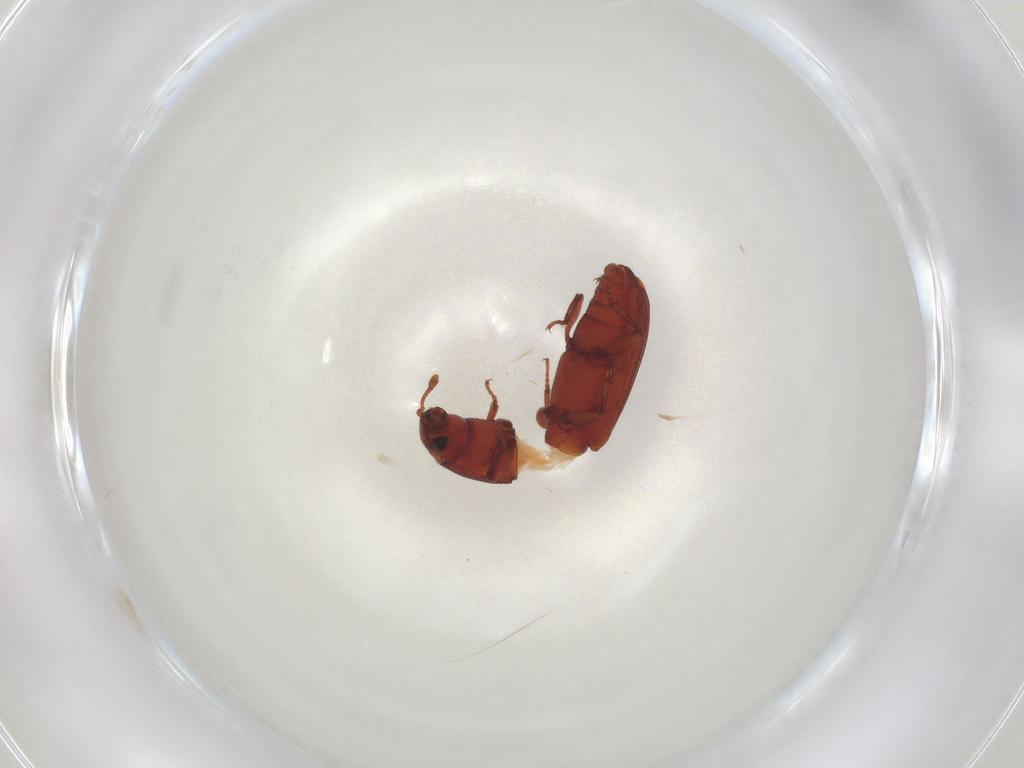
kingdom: Animalia
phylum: Arthropoda
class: Insecta
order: Coleoptera
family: Bothrideridae
